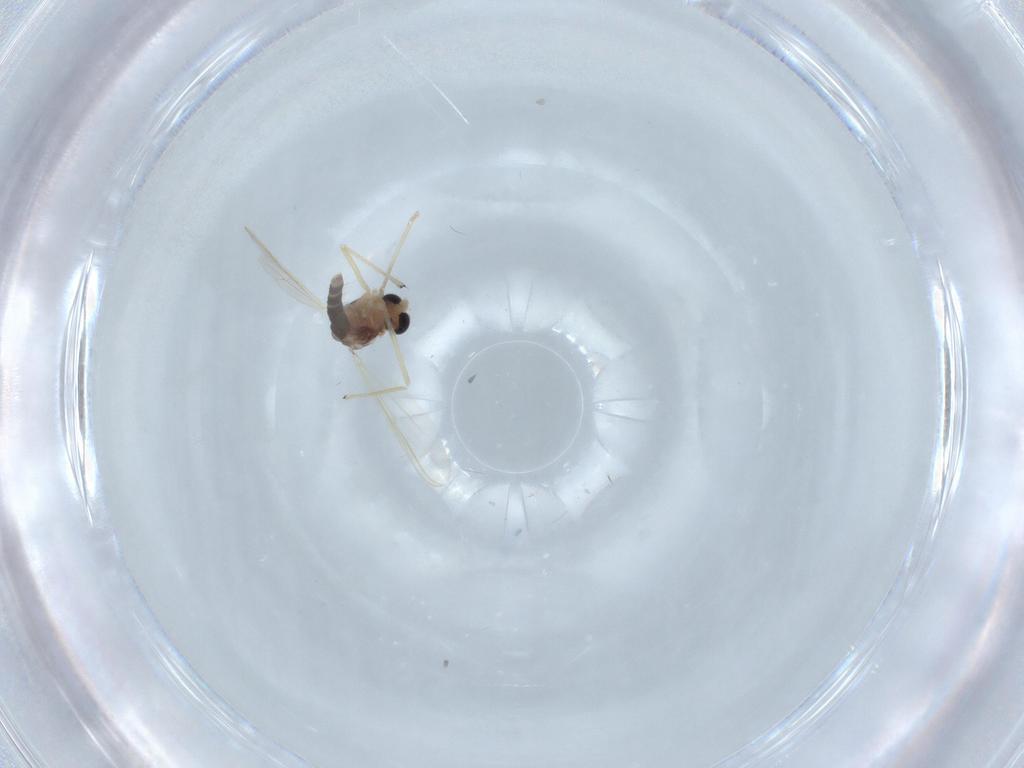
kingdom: Animalia
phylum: Arthropoda
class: Insecta
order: Diptera
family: Chironomidae
